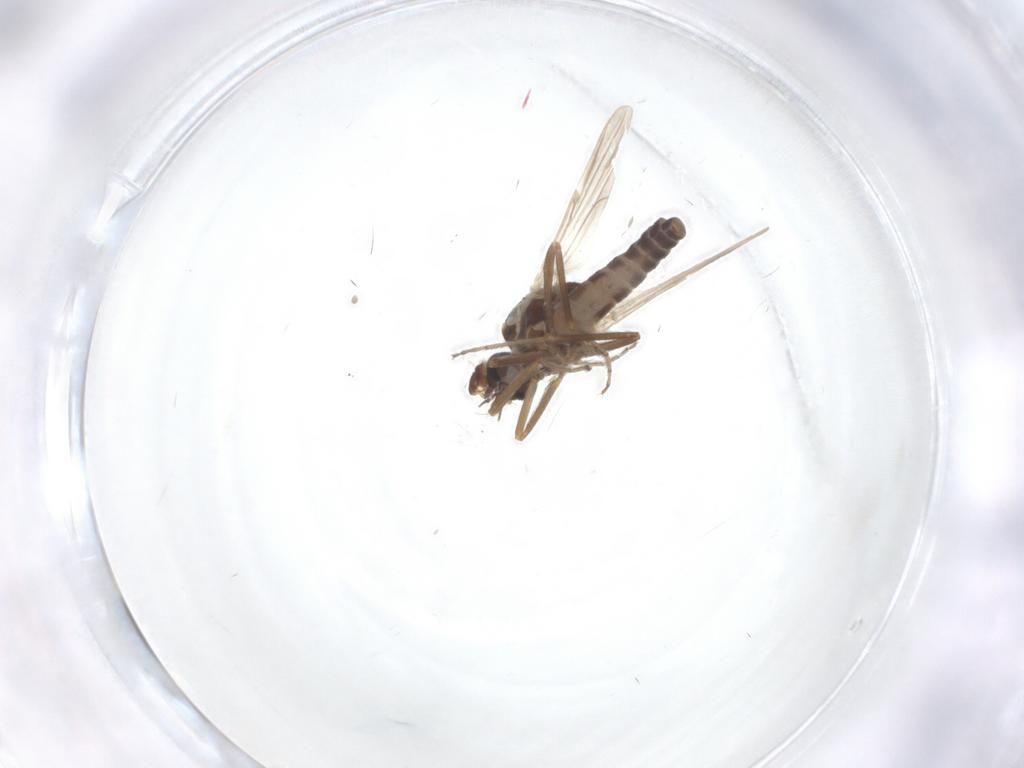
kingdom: Animalia
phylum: Arthropoda
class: Insecta
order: Diptera
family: Ceratopogonidae
